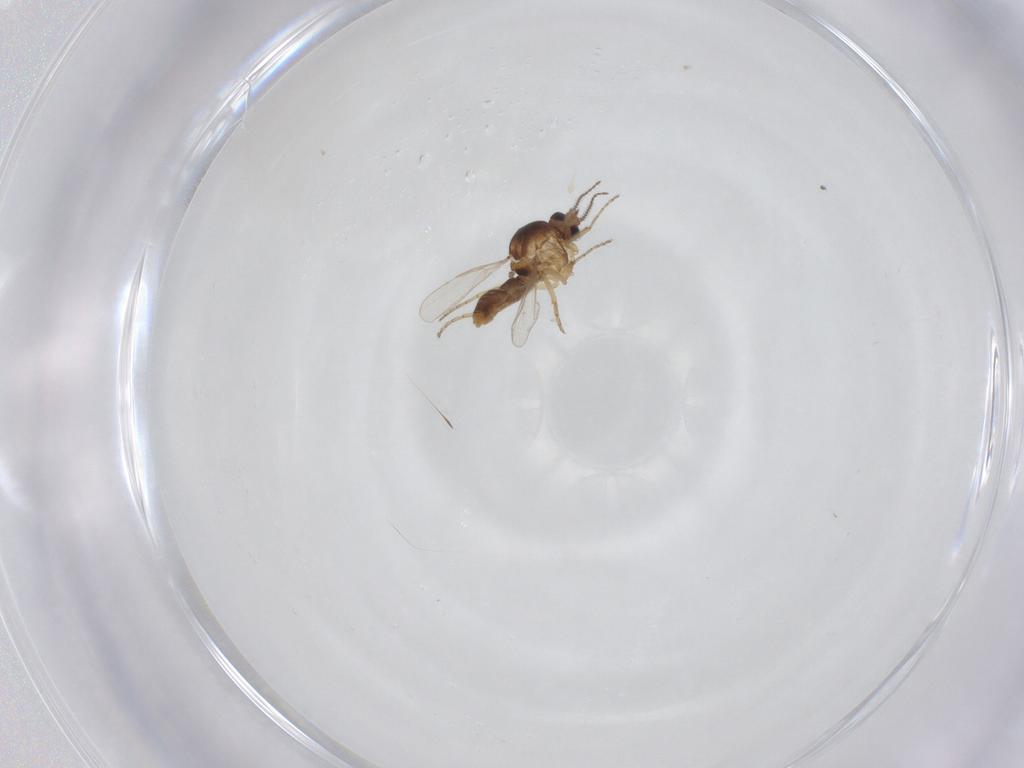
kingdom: Animalia
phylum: Arthropoda
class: Insecta
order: Diptera
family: Ceratopogonidae
